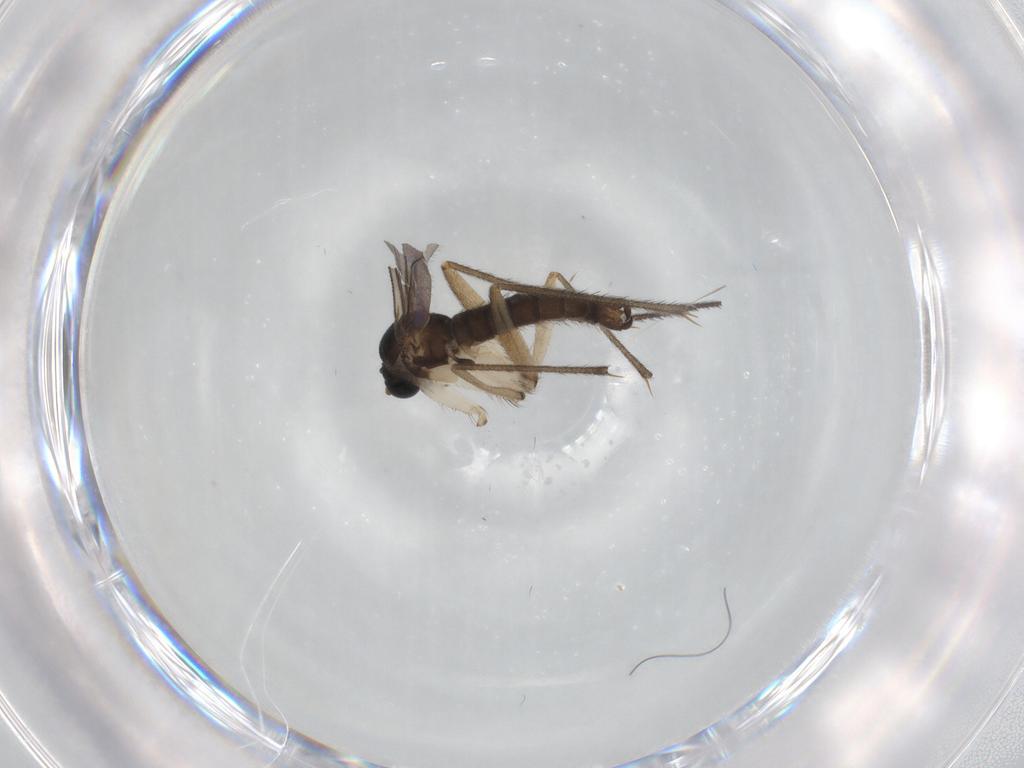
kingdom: Animalia
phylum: Arthropoda
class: Insecta
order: Diptera
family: Sciaridae
